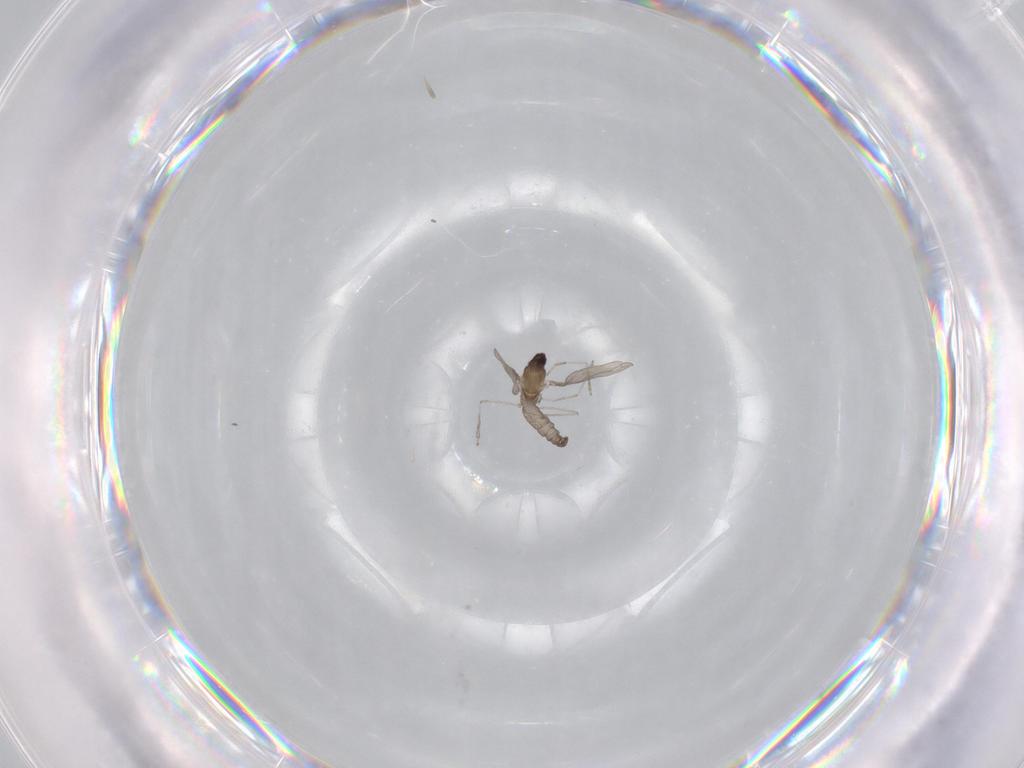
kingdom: Animalia
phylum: Arthropoda
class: Insecta
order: Diptera
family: Cecidomyiidae
